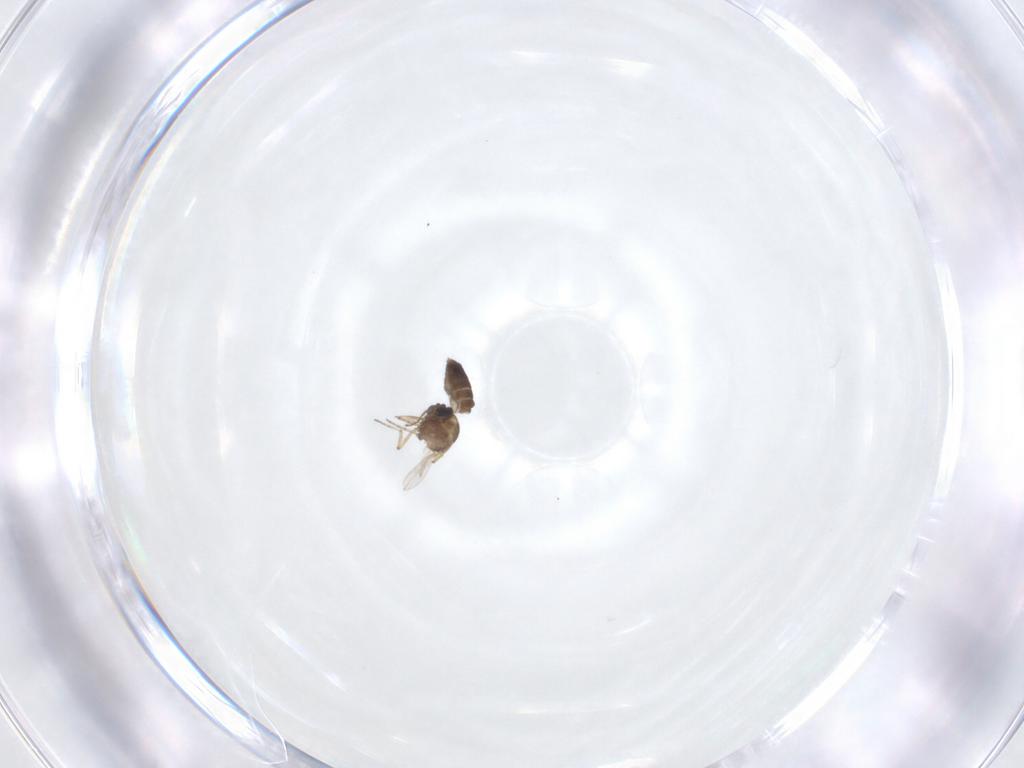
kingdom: Animalia
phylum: Arthropoda
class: Insecta
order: Diptera
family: Ceratopogonidae
